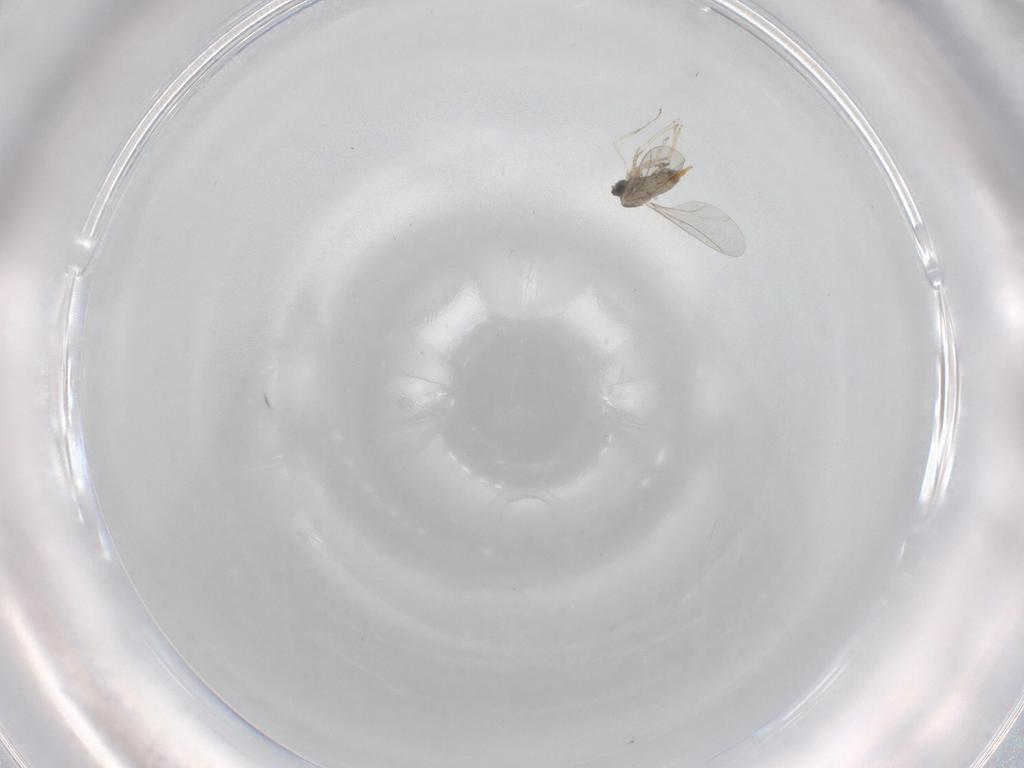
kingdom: Animalia
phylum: Arthropoda
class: Insecta
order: Diptera
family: Cecidomyiidae
